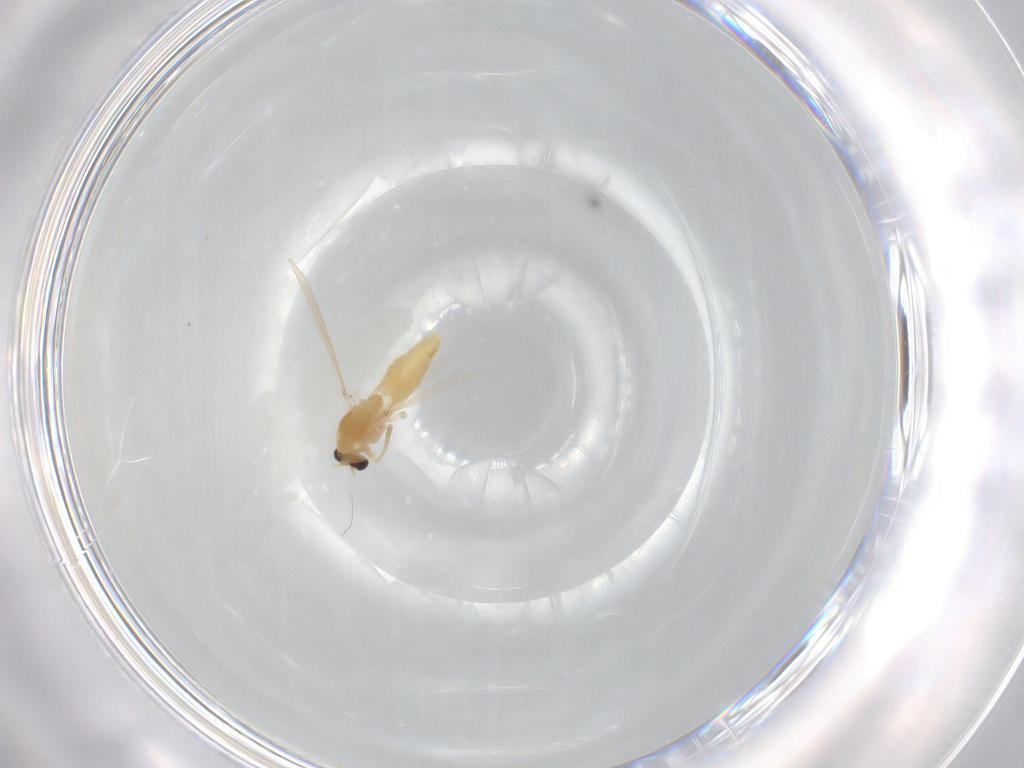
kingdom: Animalia
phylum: Arthropoda
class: Insecta
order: Diptera
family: Chironomidae
